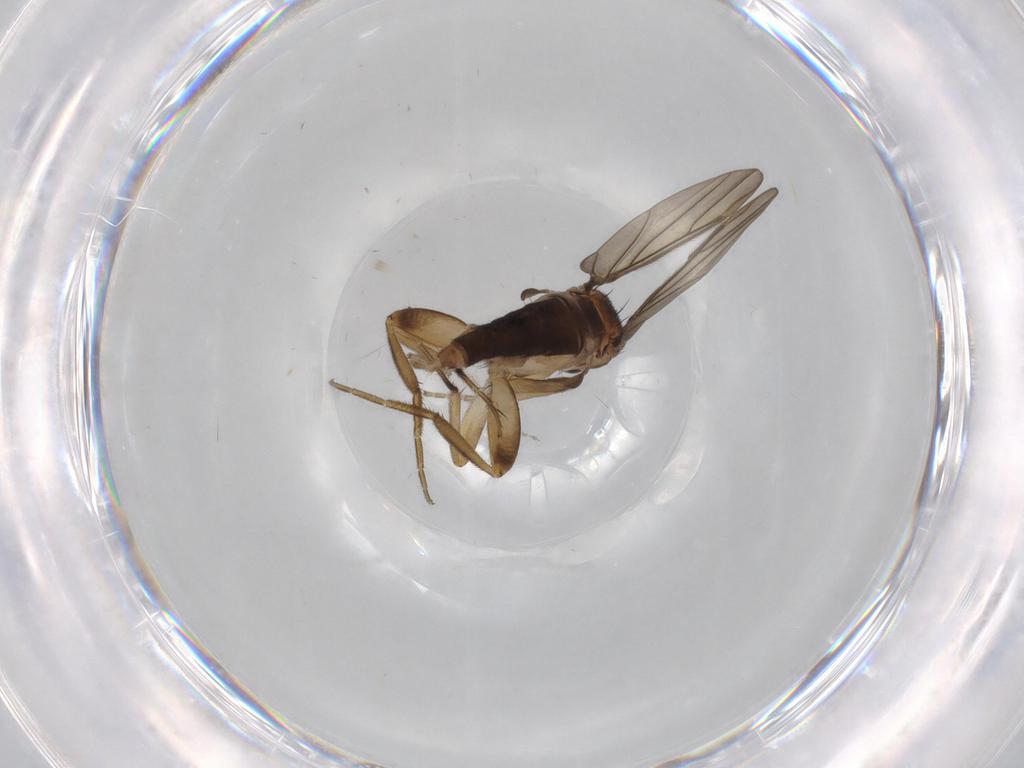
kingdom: Animalia
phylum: Arthropoda
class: Insecta
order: Diptera
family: Phoridae
